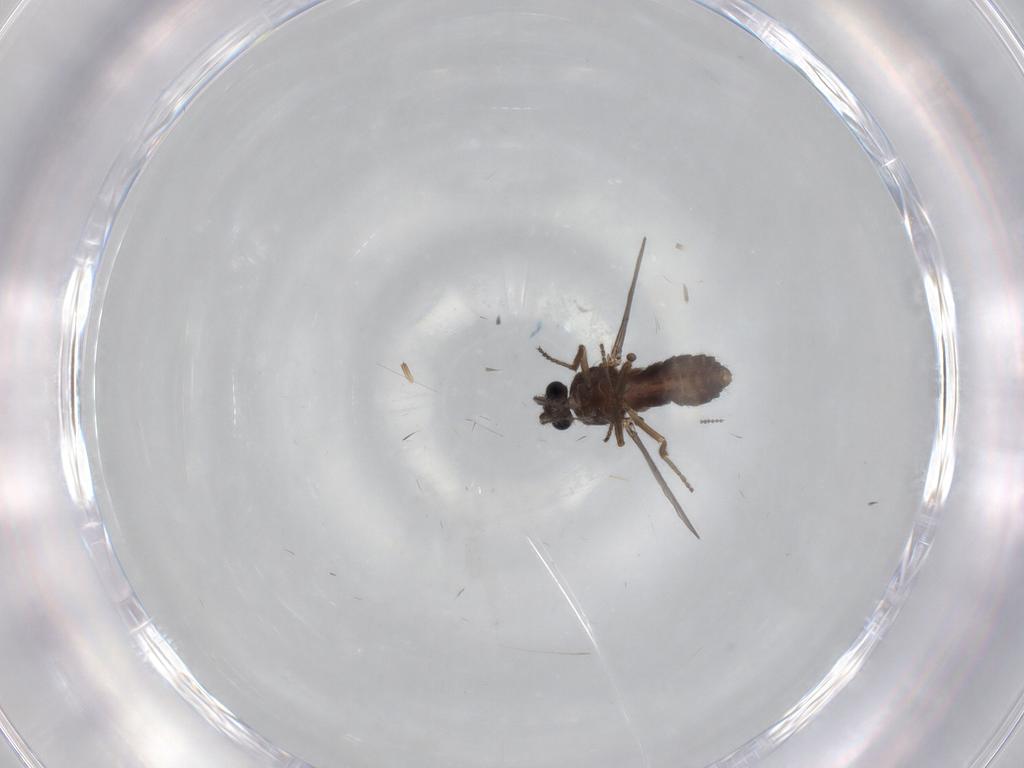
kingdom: Animalia
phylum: Arthropoda
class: Insecta
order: Diptera
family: Ceratopogonidae
